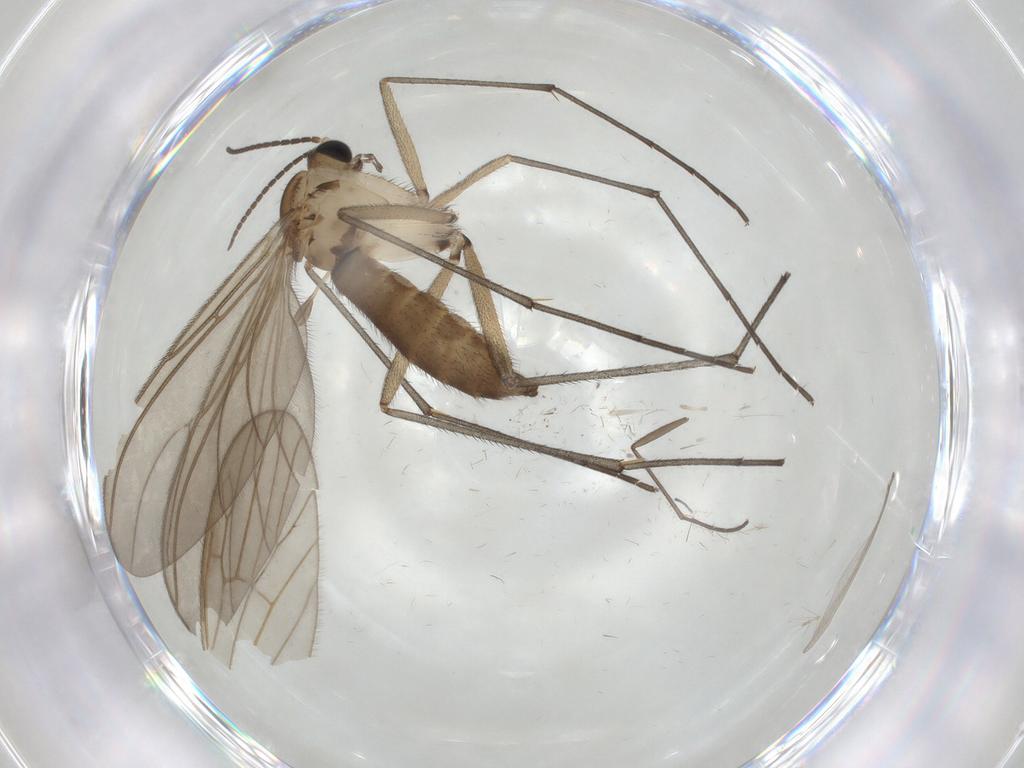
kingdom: Animalia
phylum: Arthropoda
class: Insecta
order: Diptera
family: Sciaridae
